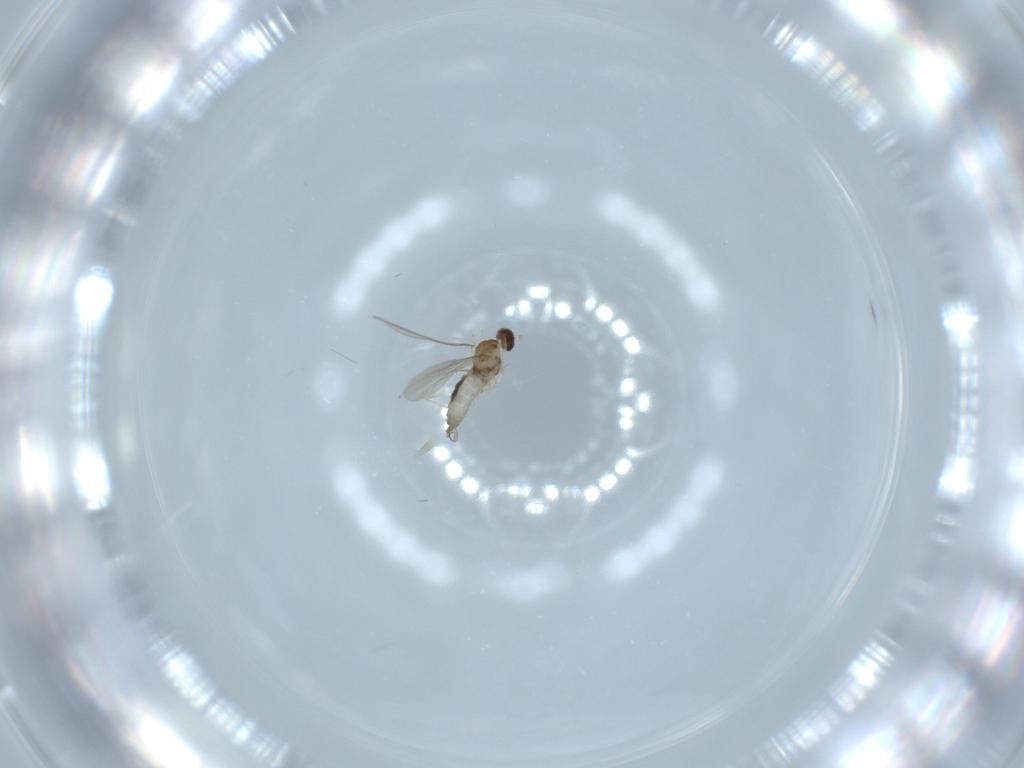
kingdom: Animalia
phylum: Arthropoda
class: Insecta
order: Diptera
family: Cecidomyiidae
